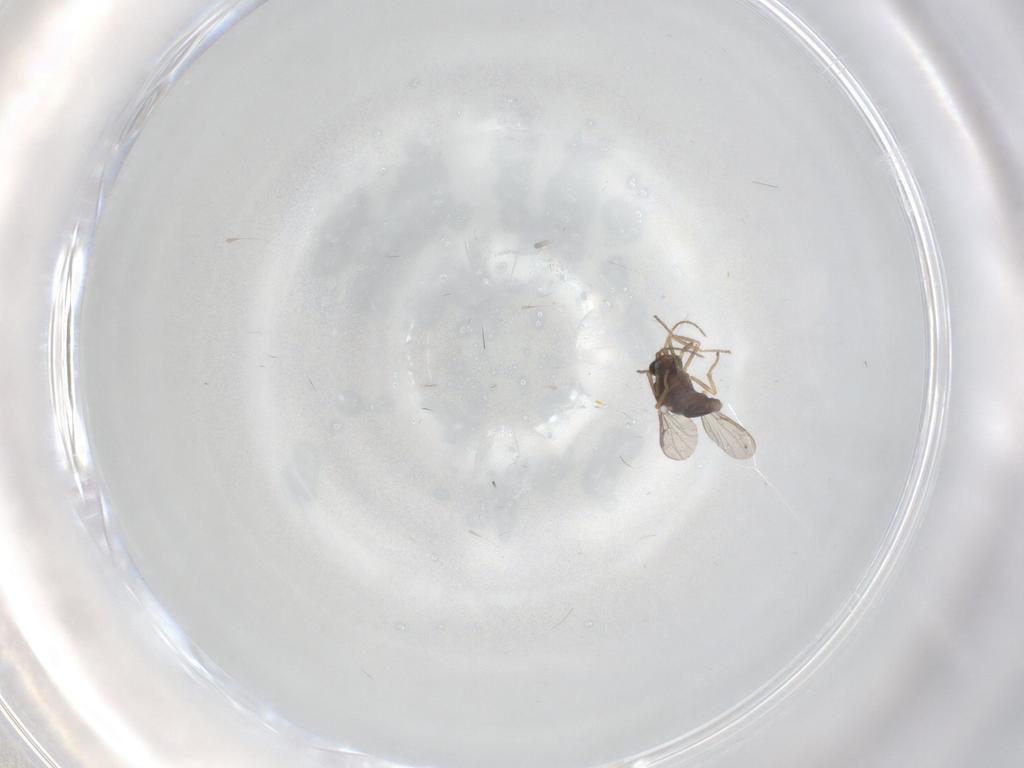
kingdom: Animalia
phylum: Arthropoda
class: Insecta
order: Diptera
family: Ceratopogonidae
